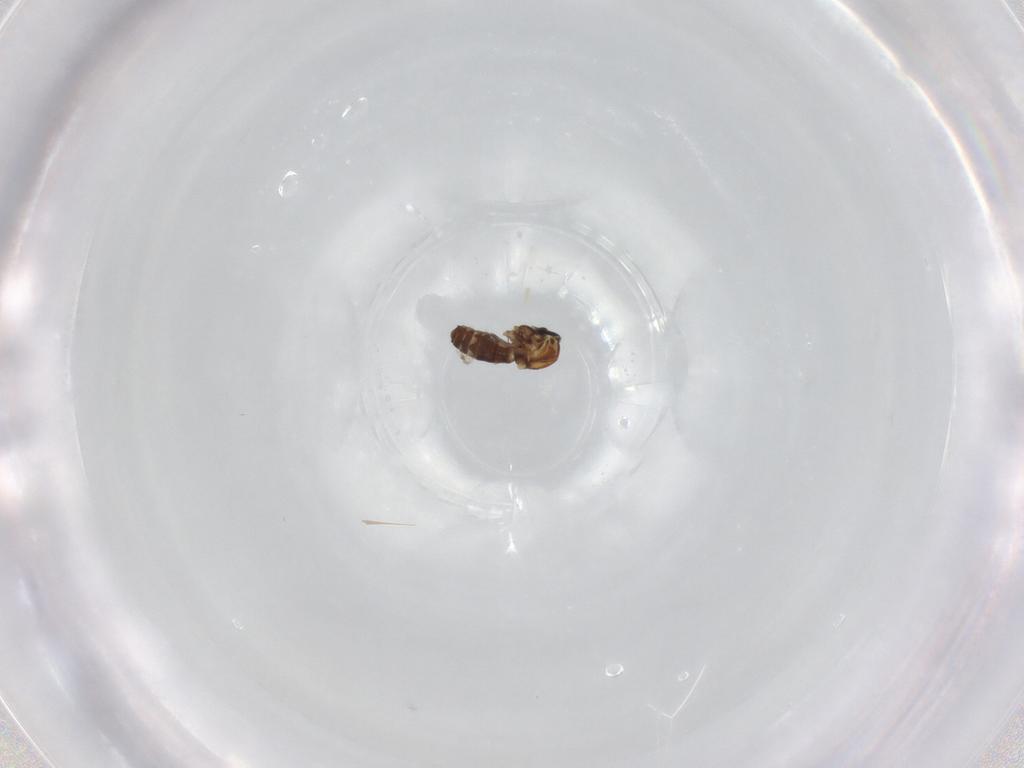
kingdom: Animalia
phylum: Arthropoda
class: Insecta
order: Diptera
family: Ceratopogonidae
